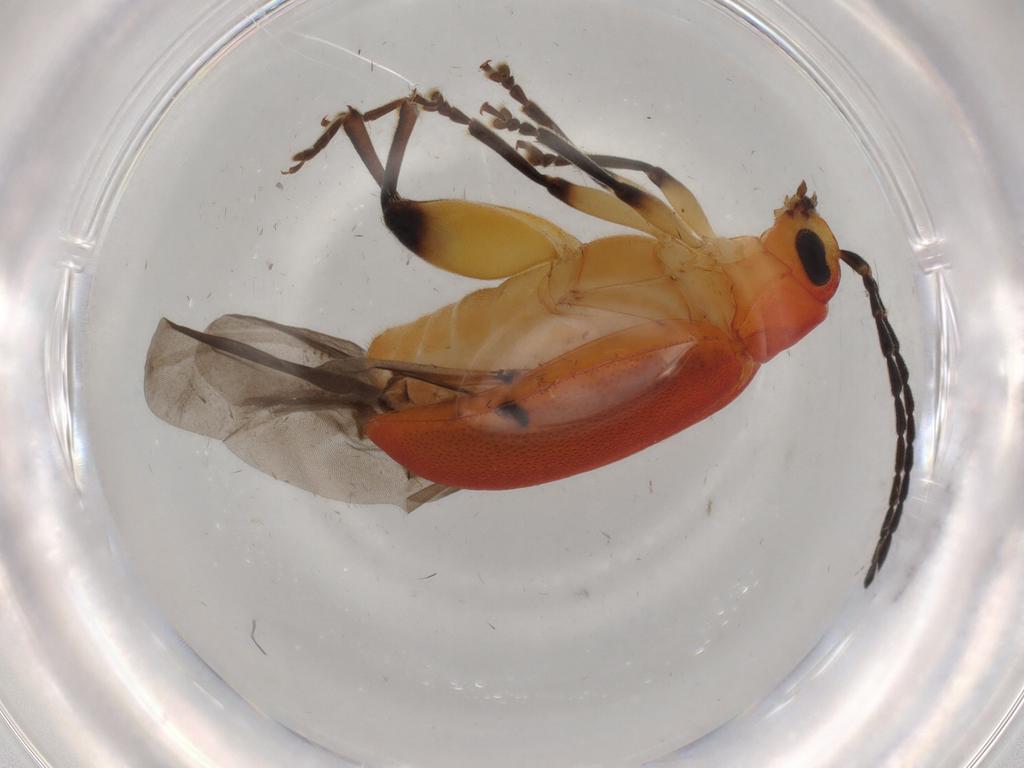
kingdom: Animalia
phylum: Arthropoda
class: Insecta
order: Coleoptera
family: Chrysomelidae
